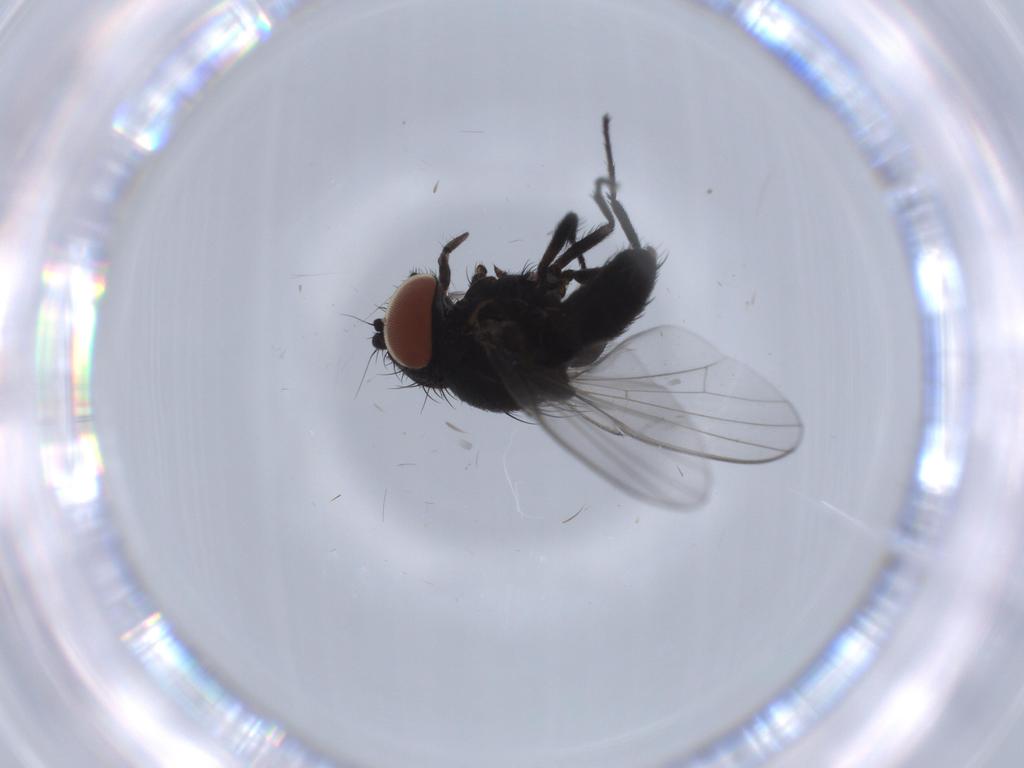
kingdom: Animalia
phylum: Arthropoda
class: Insecta
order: Diptera
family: Milichiidae
